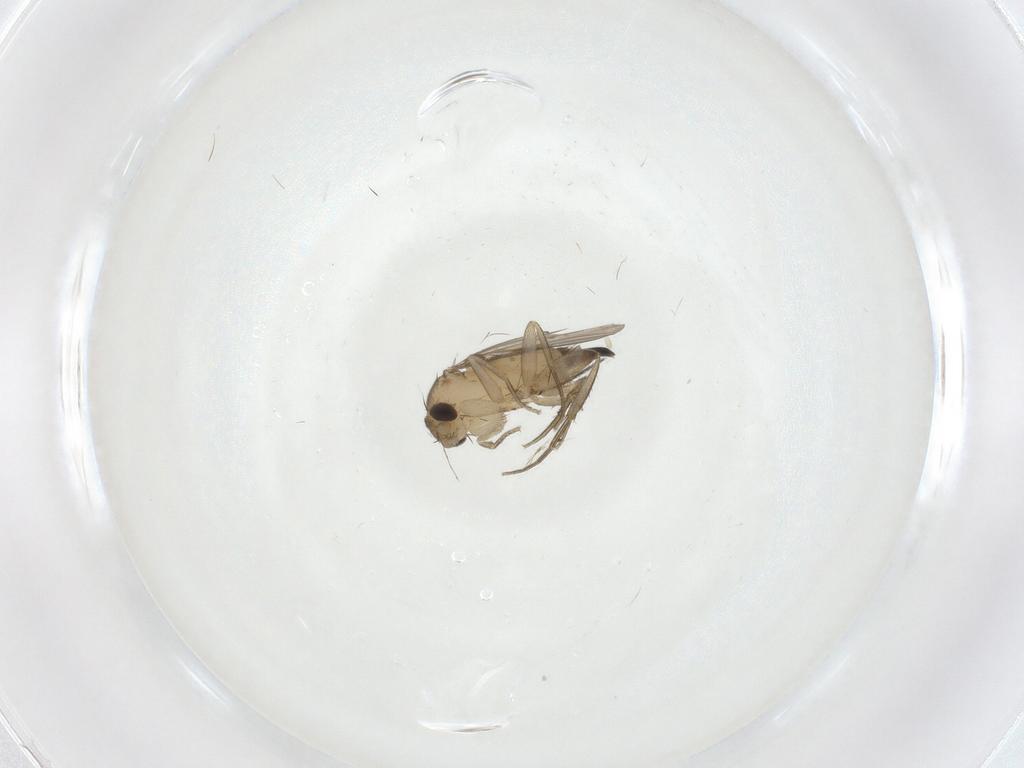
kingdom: Animalia
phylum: Arthropoda
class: Insecta
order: Diptera
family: Phoridae
